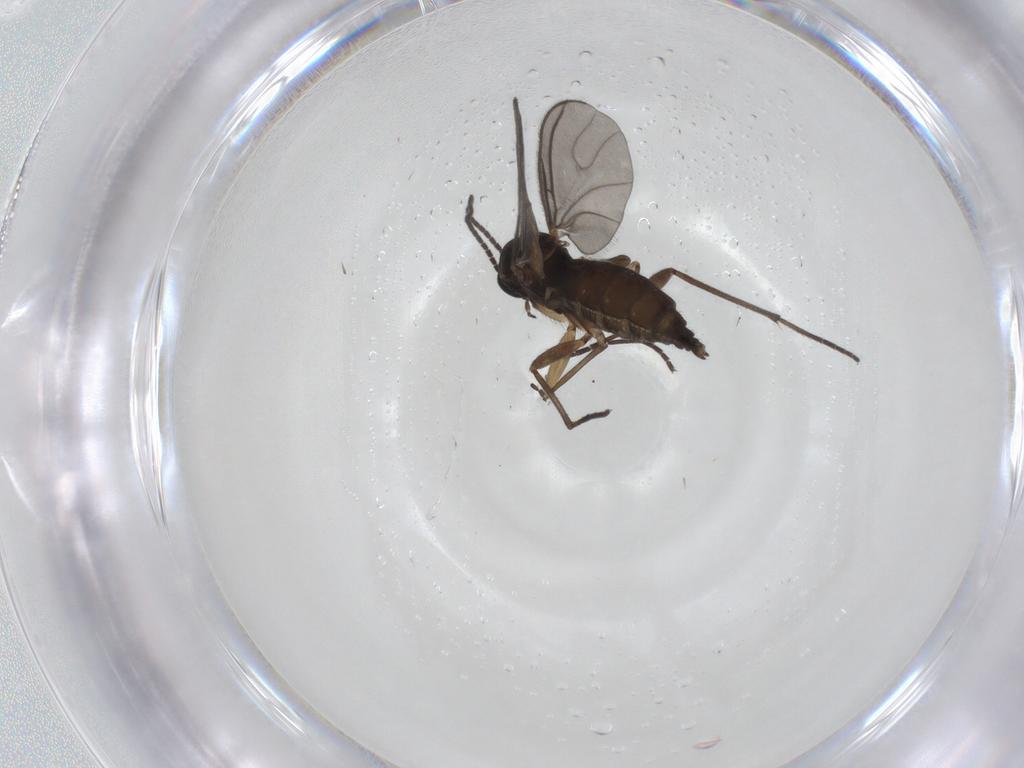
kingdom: Animalia
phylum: Arthropoda
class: Insecta
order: Diptera
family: Sciaridae
